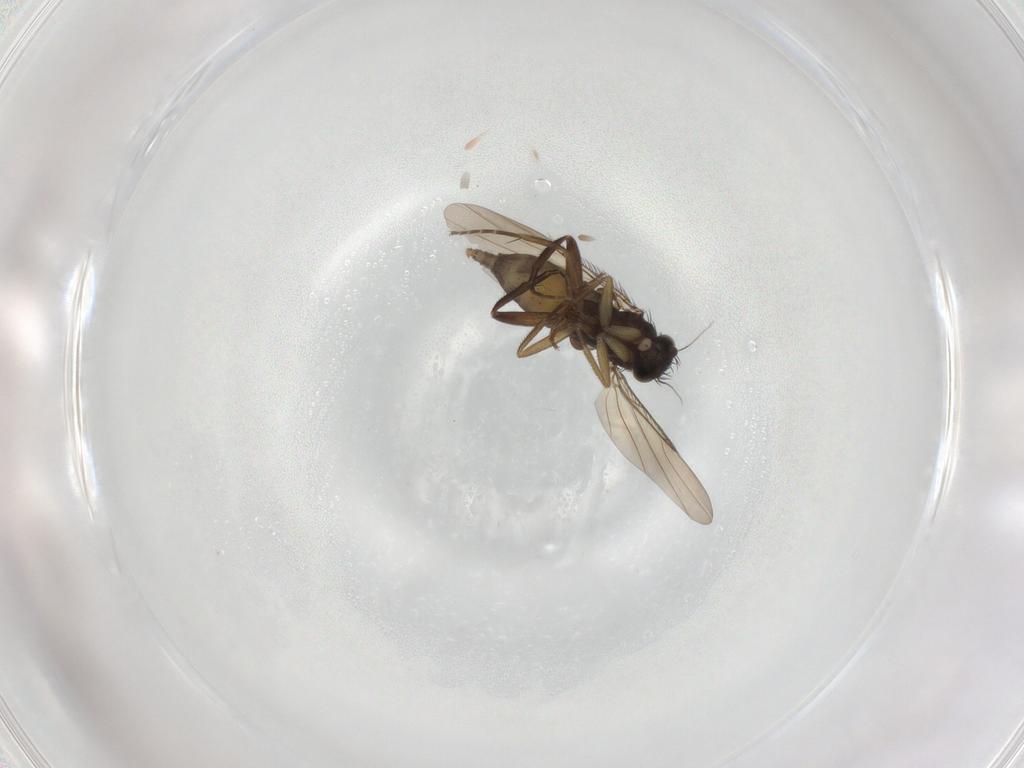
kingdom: Animalia
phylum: Arthropoda
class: Insecta
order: Diptera
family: Phoridae
